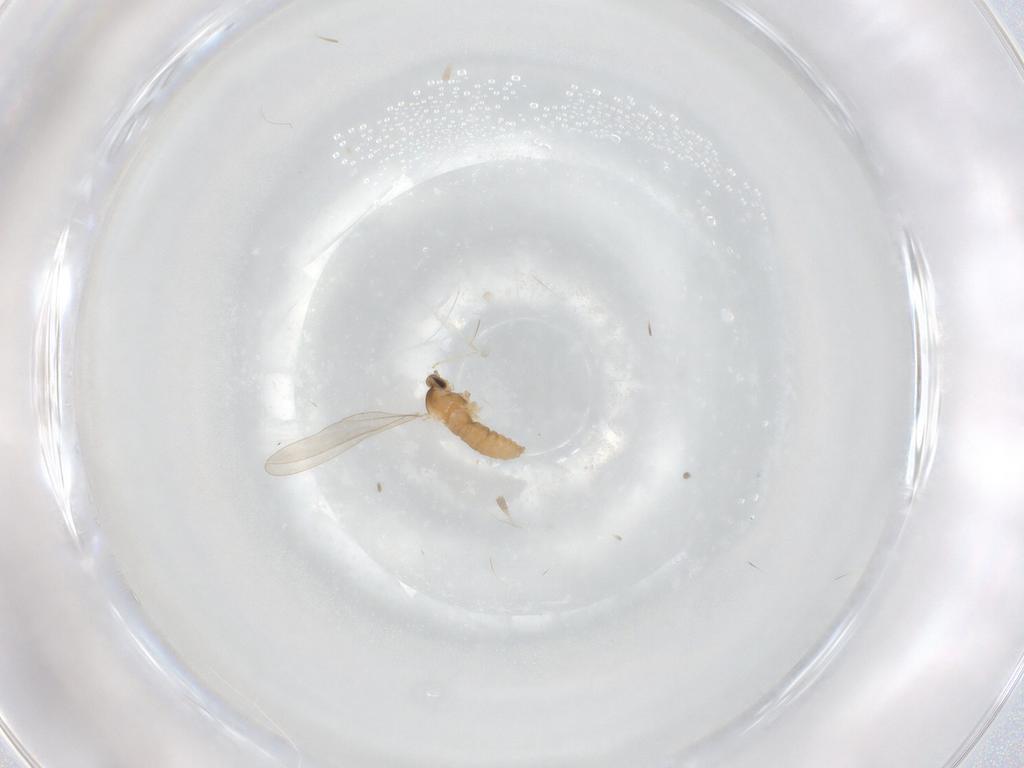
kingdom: Animalia
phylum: Arthropoda
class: Insecta
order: Diptera
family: Cecidomyiidae
